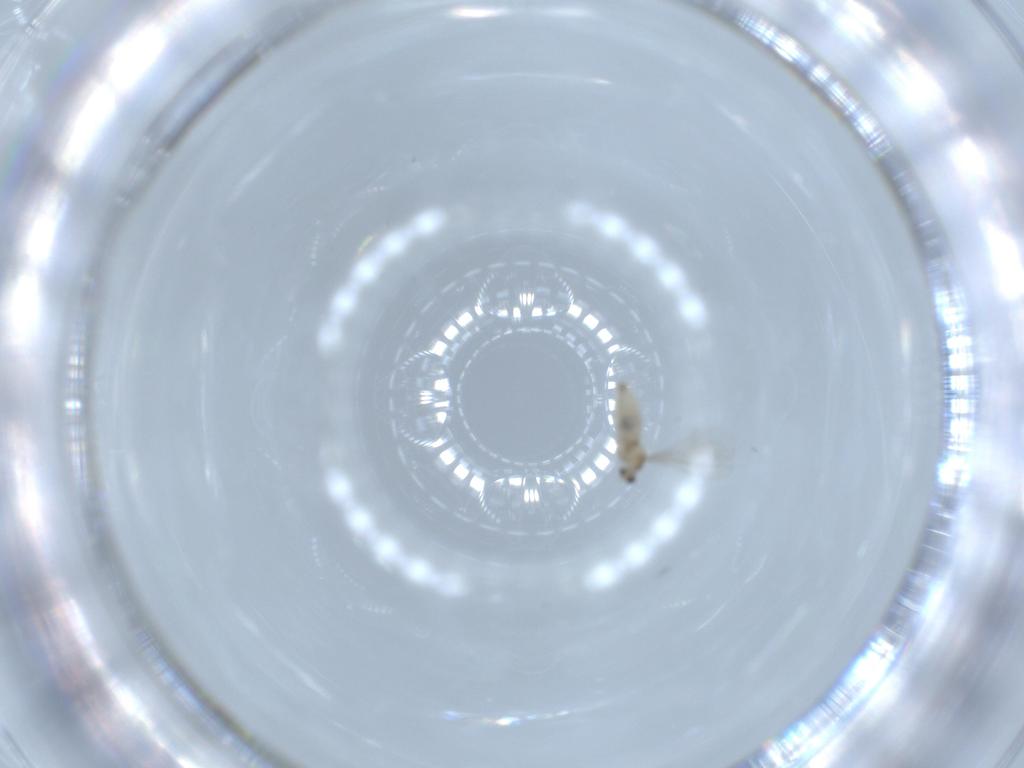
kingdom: Animalia
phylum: Arthropoda
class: Insecta
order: Diptera
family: Cecidomyiidae
